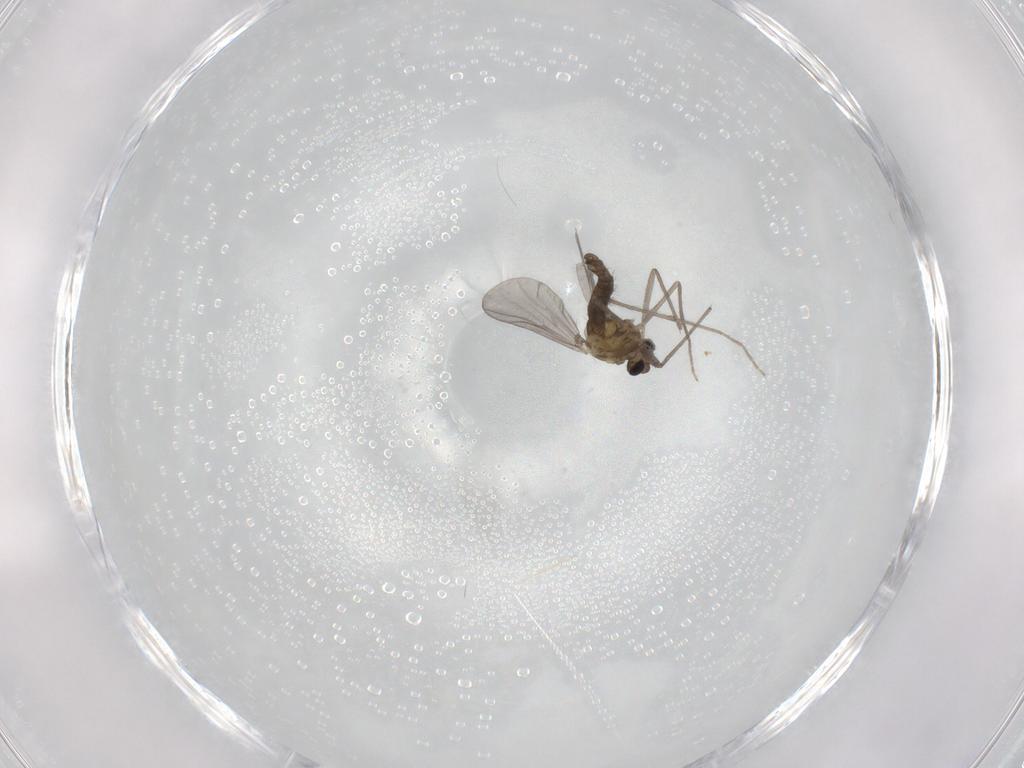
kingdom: Animalia
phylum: Arthropoda
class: Insecta
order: Diptera
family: Chironomidae
